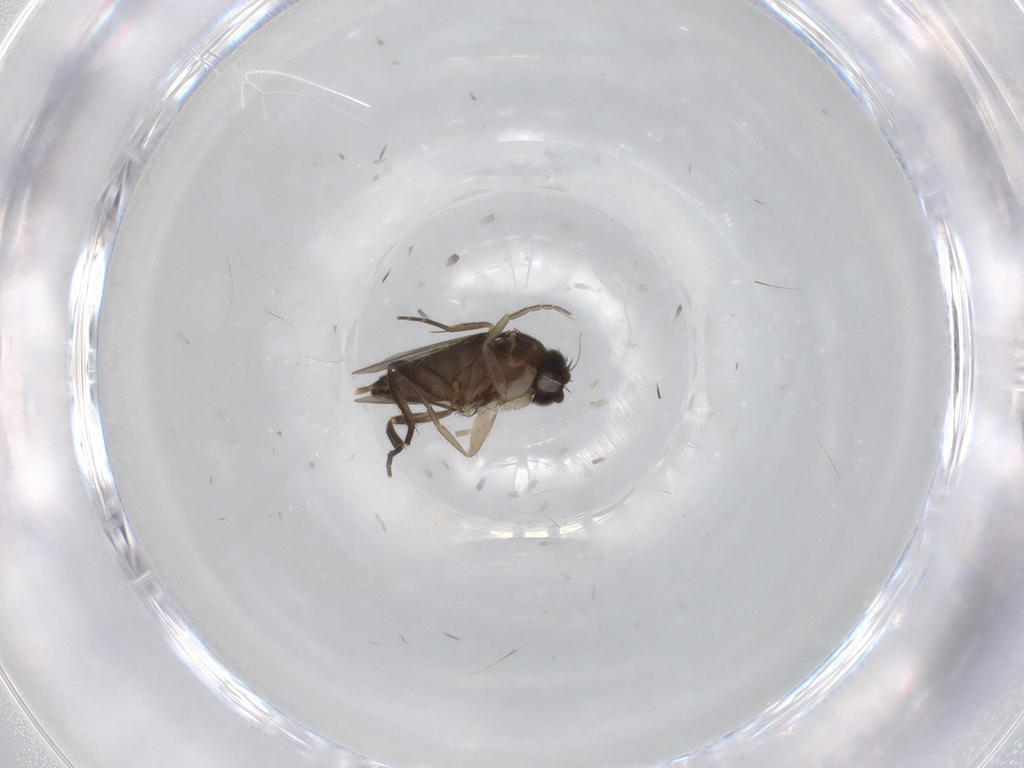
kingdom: Animalia
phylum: Arthropoda
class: Insecta
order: Diptera
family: Phoridae
